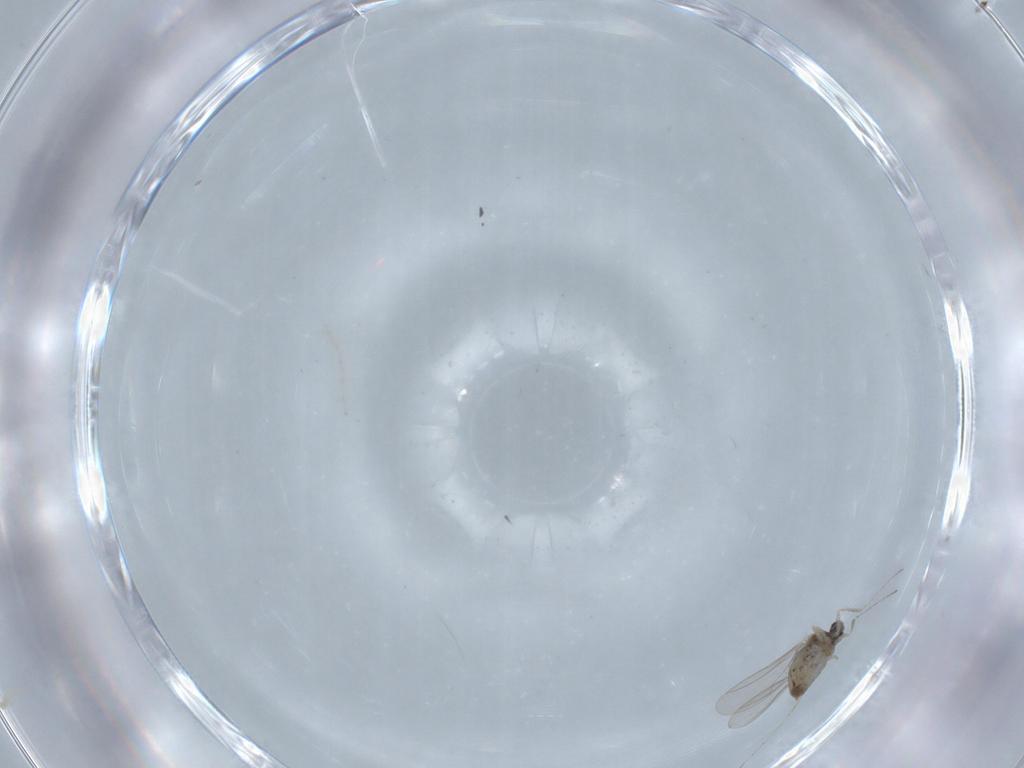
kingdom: Animalia
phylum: Arthropoda
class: Insecta
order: Diptera
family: Cecidomyiidae
